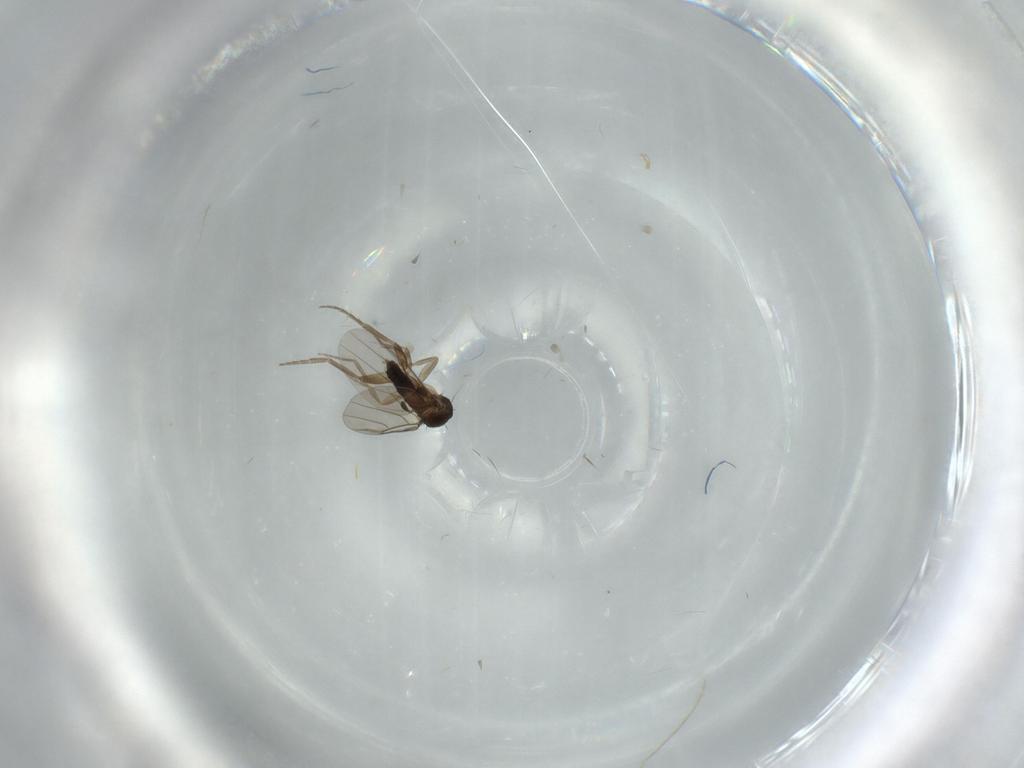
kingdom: Animalia
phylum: Arthropoda
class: Insecta
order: Diptera
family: Phoridae
